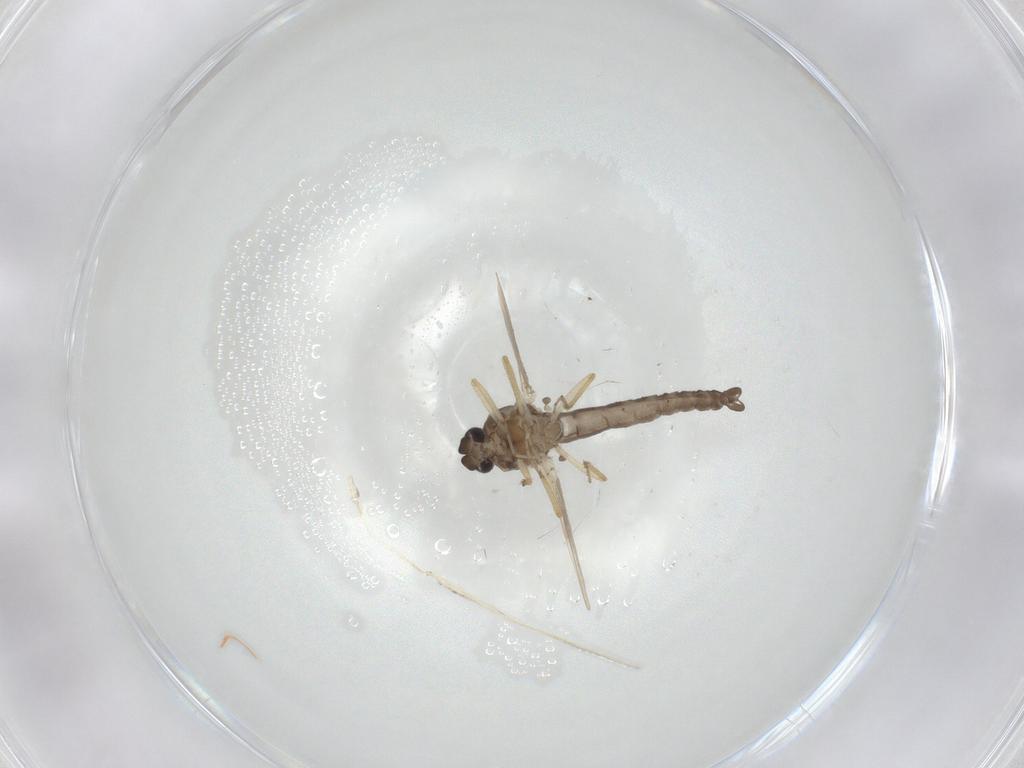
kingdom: Animalia
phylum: Arthropoda
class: Insecta
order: Diptera
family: Ceratopogonidae
